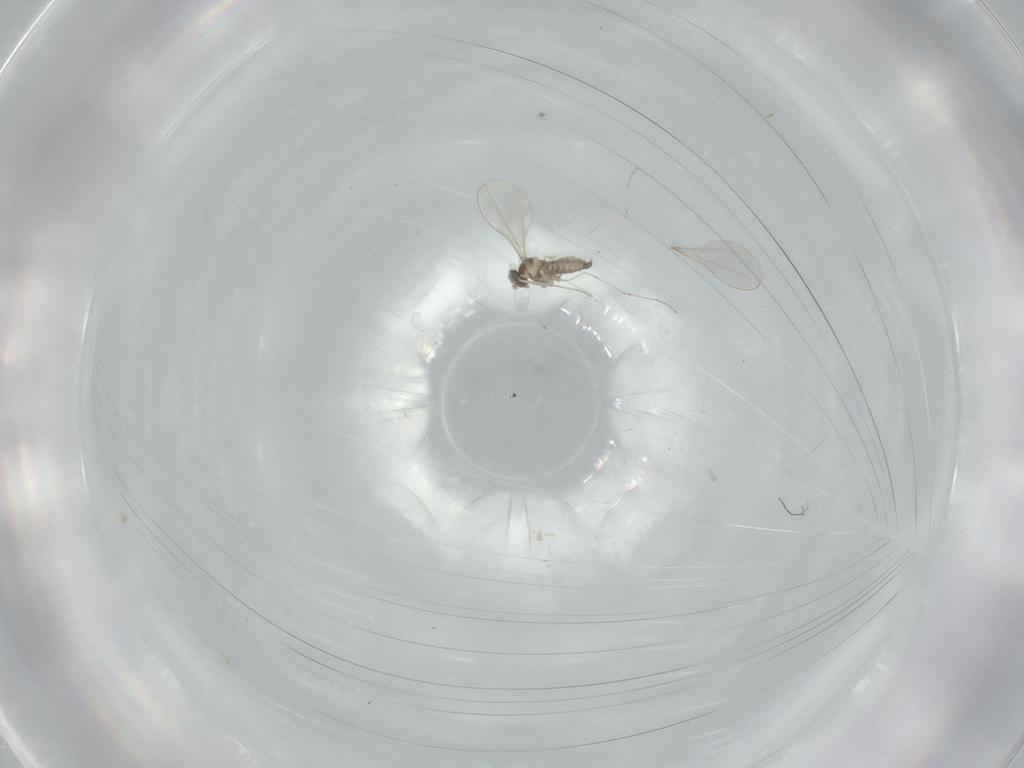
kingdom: Animalia
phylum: Arthropoda
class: Insecta
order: Diptera
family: Cecidomyiidae
